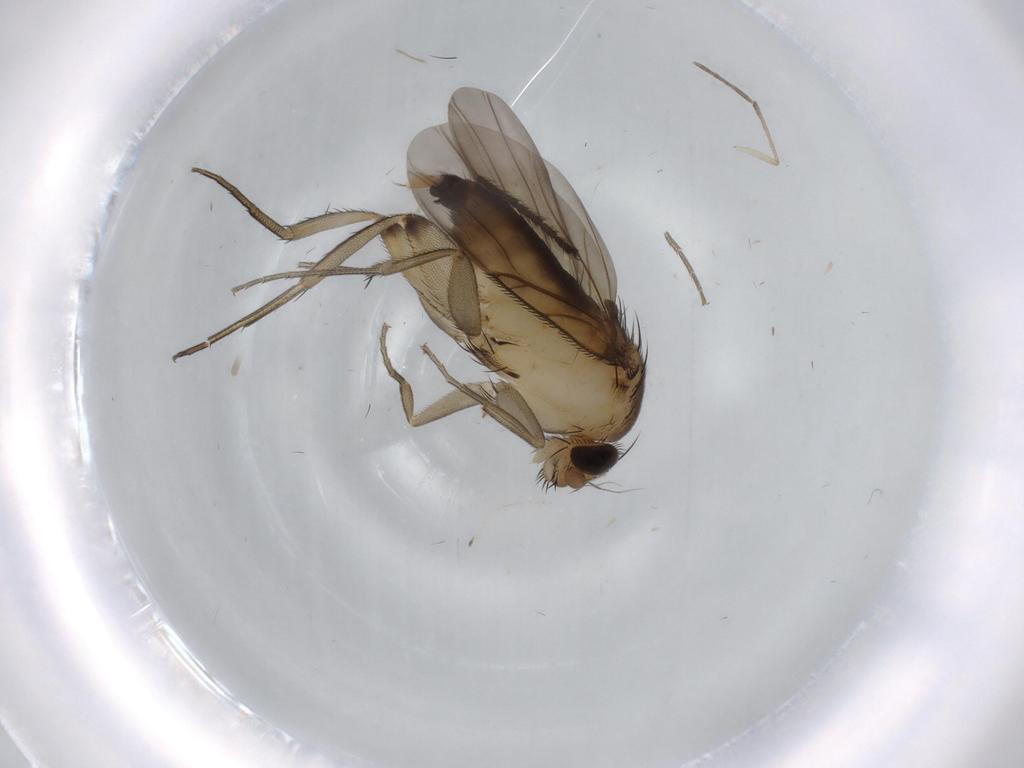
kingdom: Animalia
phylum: Arthropoda
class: Insecta
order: Diptera
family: Phoridae
